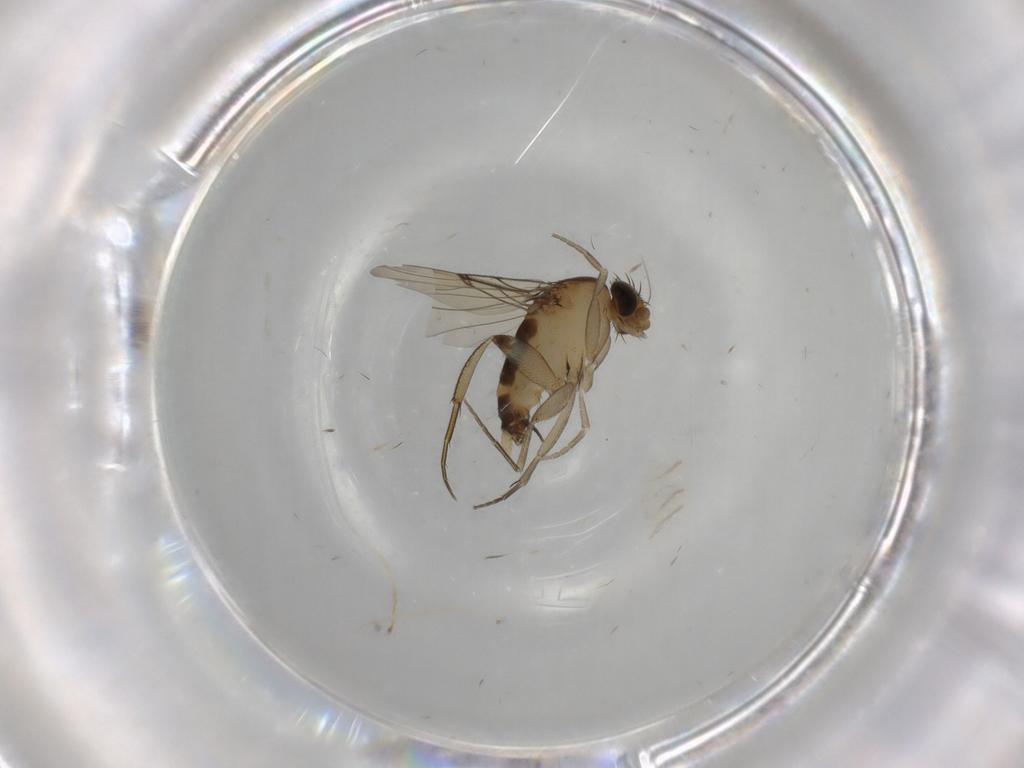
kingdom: Animalia
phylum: Arthropoda
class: Insecta
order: Diptera
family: Phoridae
